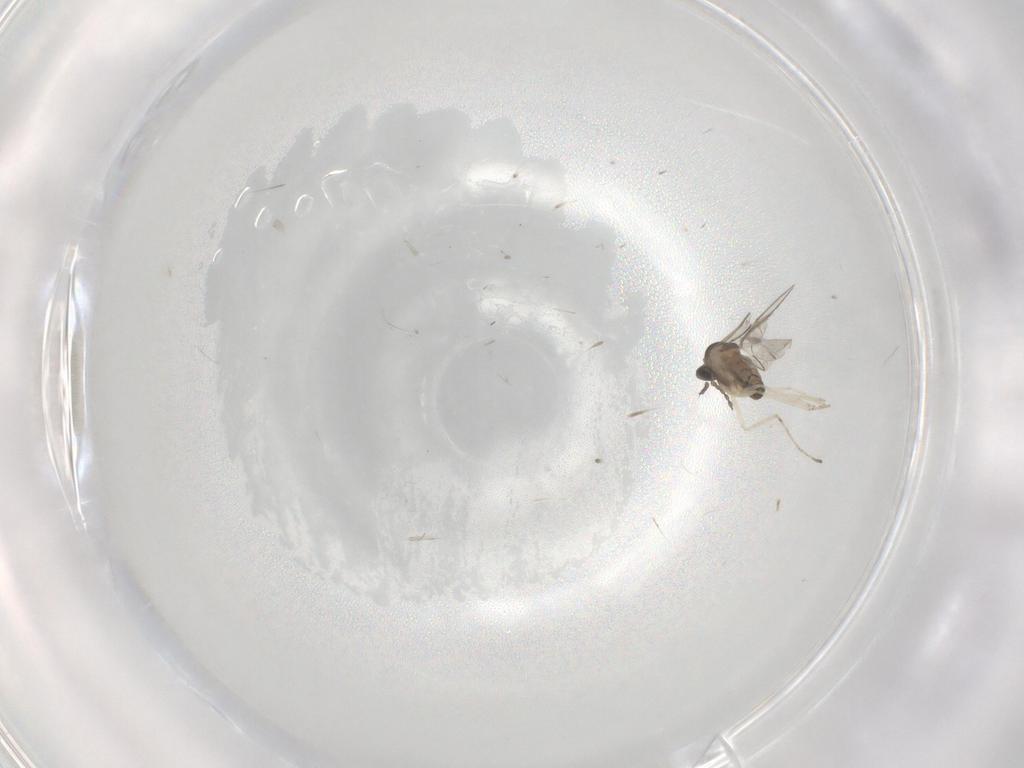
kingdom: Animalia
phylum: Arthropoda
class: Insecta
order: Diptera
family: Cecidomyiidae
